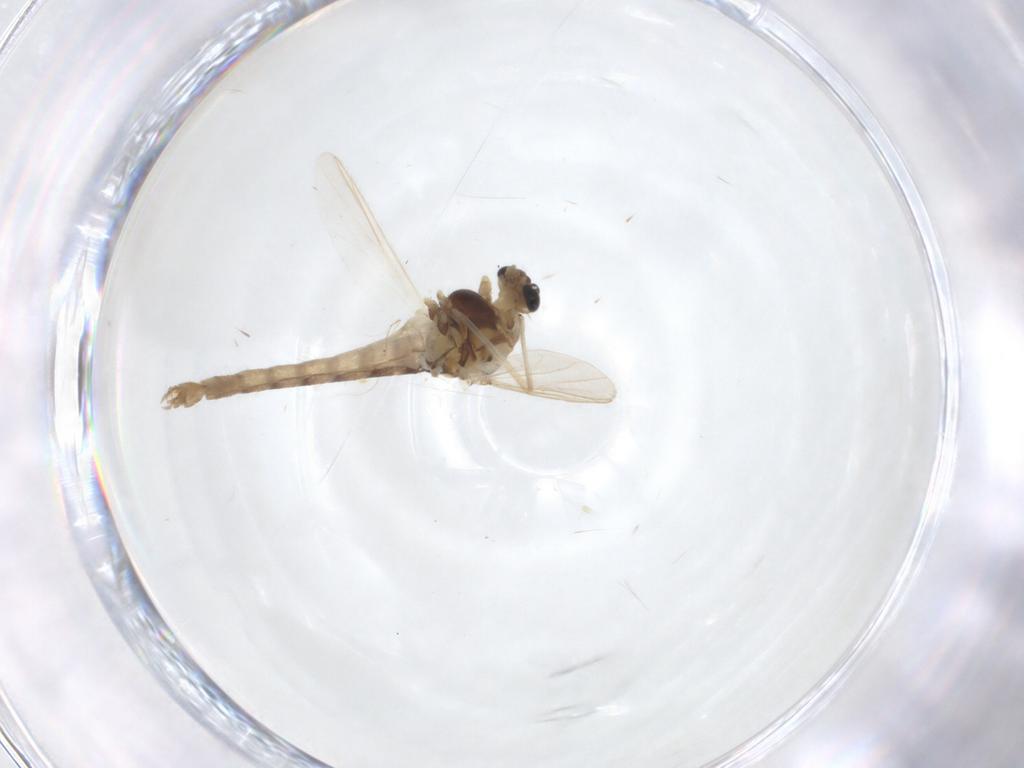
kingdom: Animalia
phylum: Arthropoda
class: Insecta
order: Diptera
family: Chironomidae
